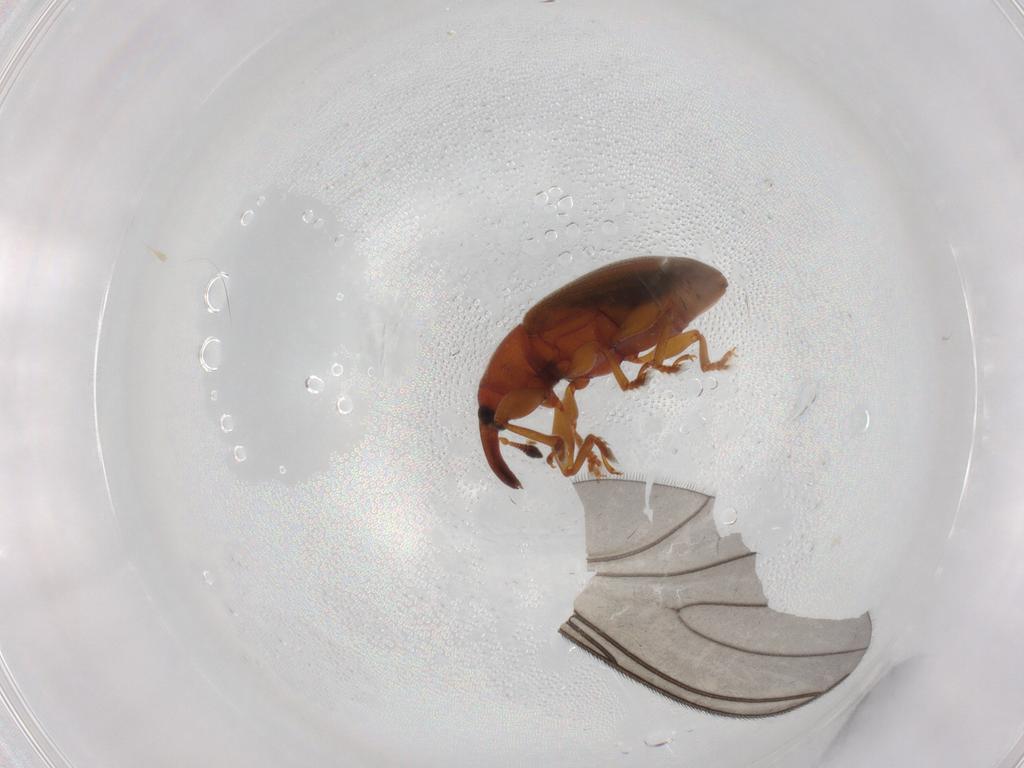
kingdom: Animalia
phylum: Arthropoda
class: Insecta
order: Coleoptera
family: Curculionidae
